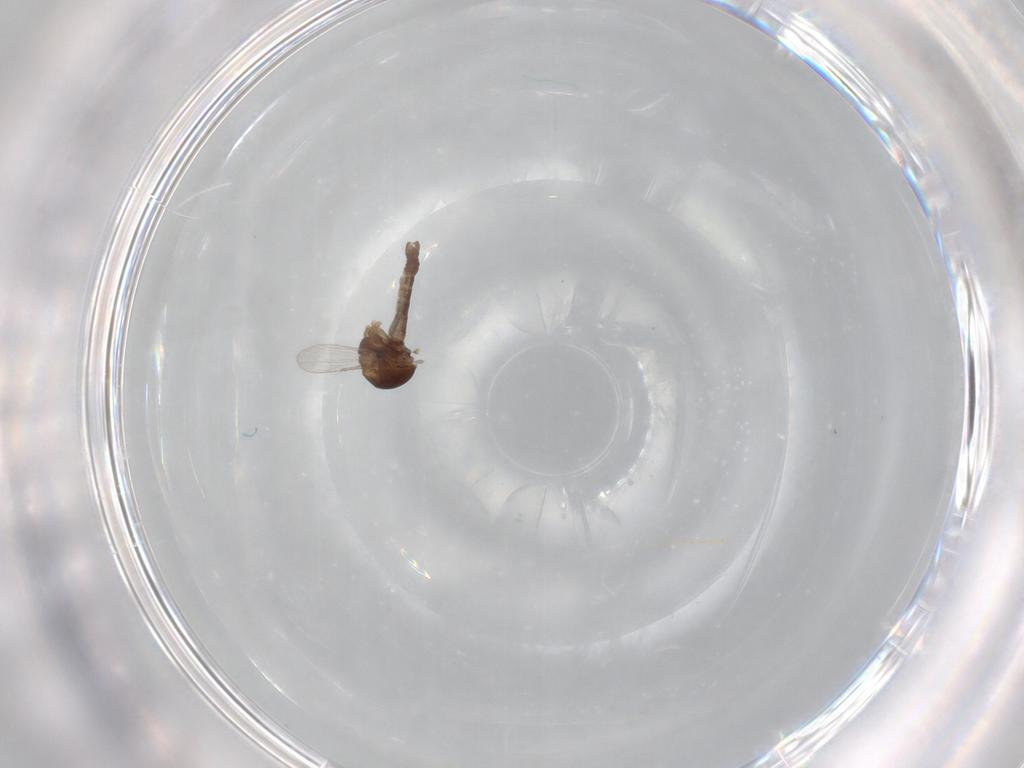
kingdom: Animalia
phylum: Arthropoda
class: Insecta
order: Diptera
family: Ceratopogonidae
